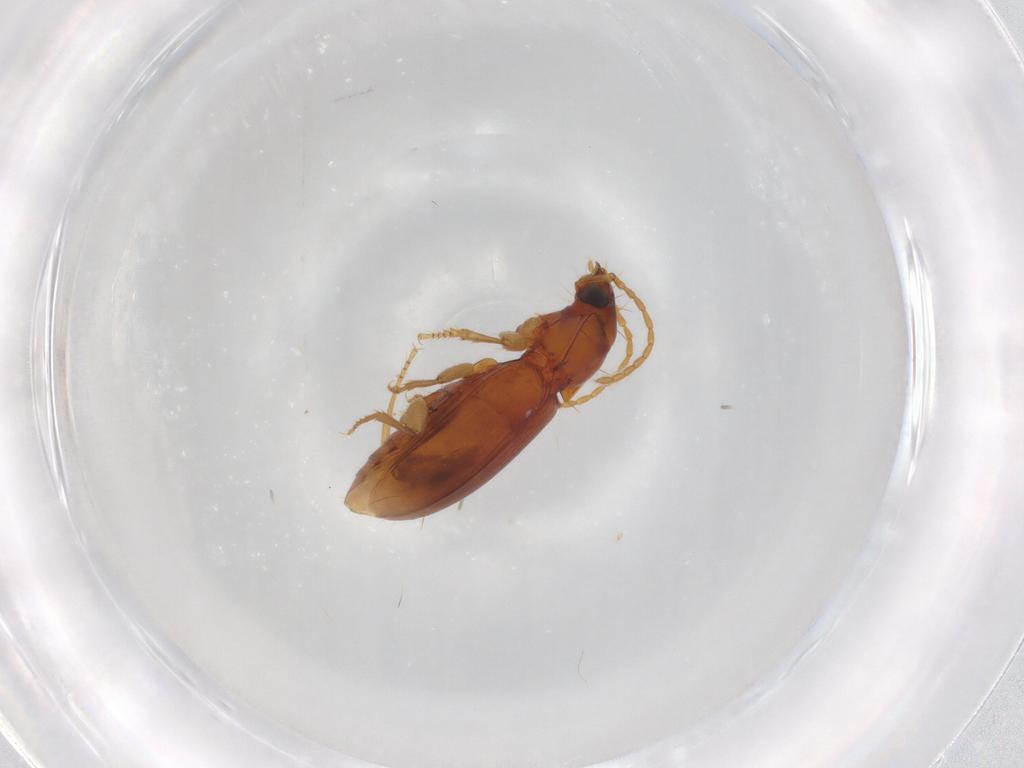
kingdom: Animalia
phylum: Arthropoda
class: Insecta
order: Coleoptera
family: Carabidae
